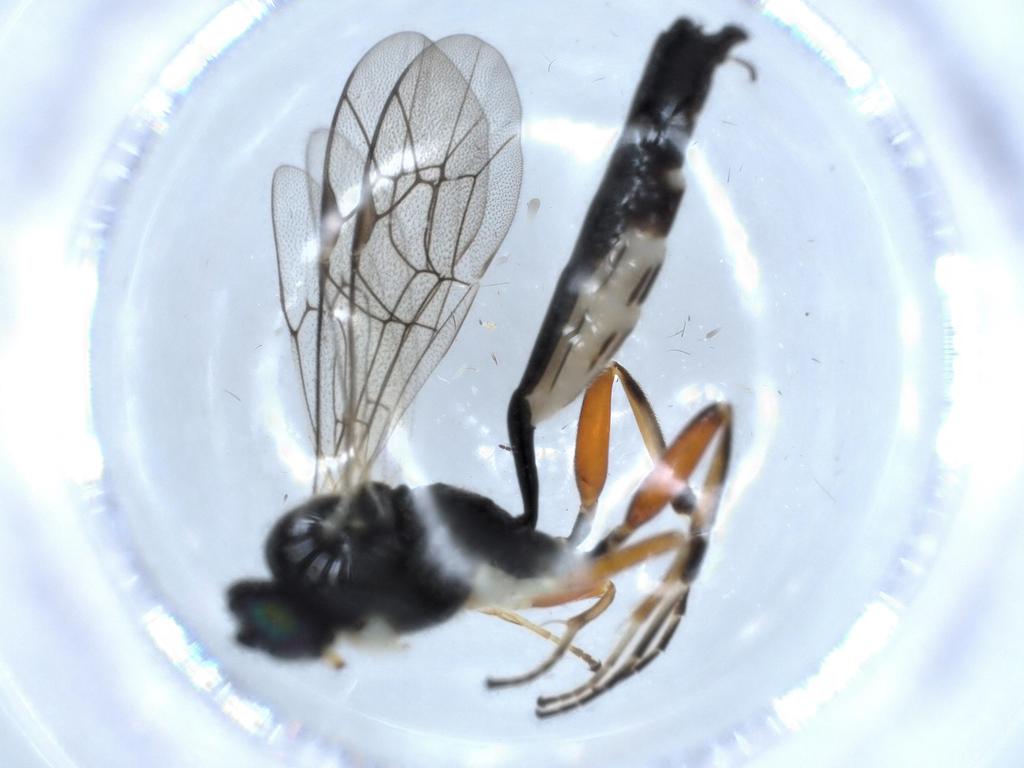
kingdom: Animalia
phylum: Arthropoda
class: Insecta
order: Hymenoptera
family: Ichneumonidae
